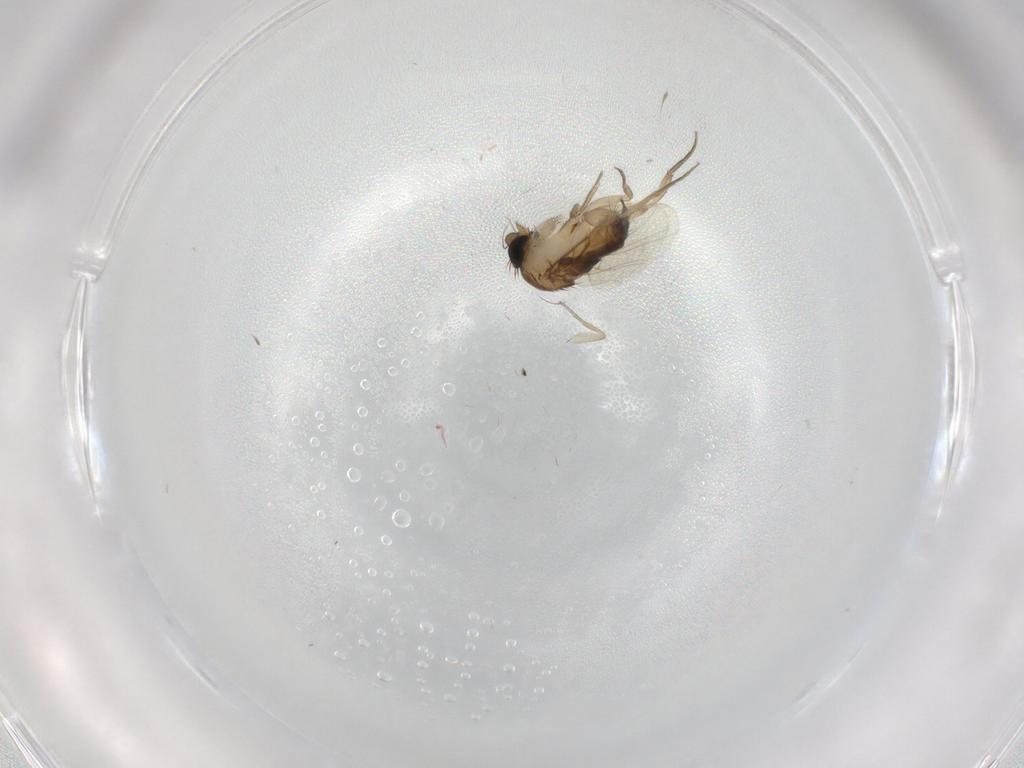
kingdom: Animalia
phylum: Arthropoda
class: Insecta
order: Diptera
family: Phoridae
